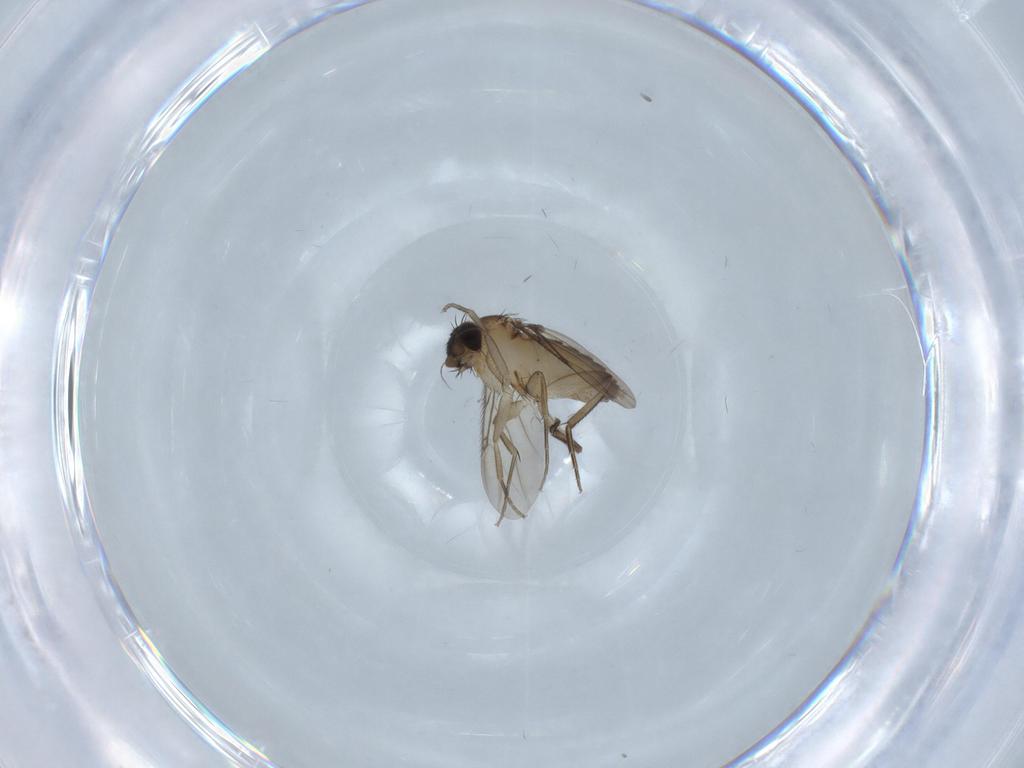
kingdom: Animalia
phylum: Arthropoda
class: Insecta
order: Diptera
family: Phoridae
